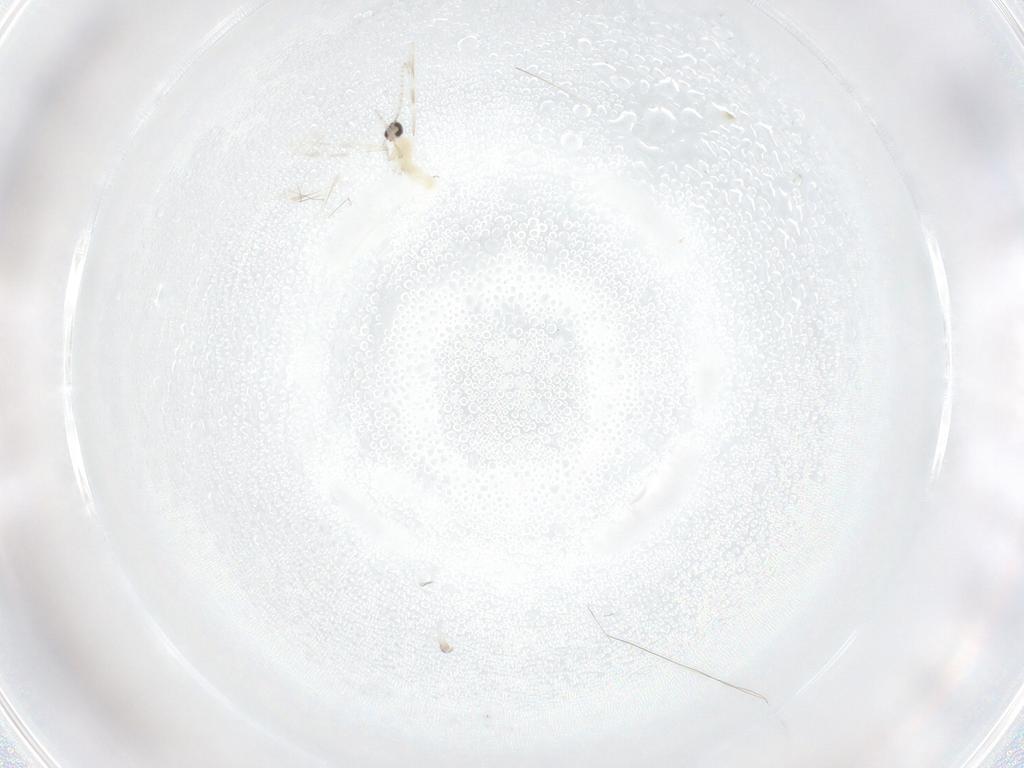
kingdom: Animalia
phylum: Arthropoda
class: Insecta
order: Diptera
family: Cecidomyiidae
